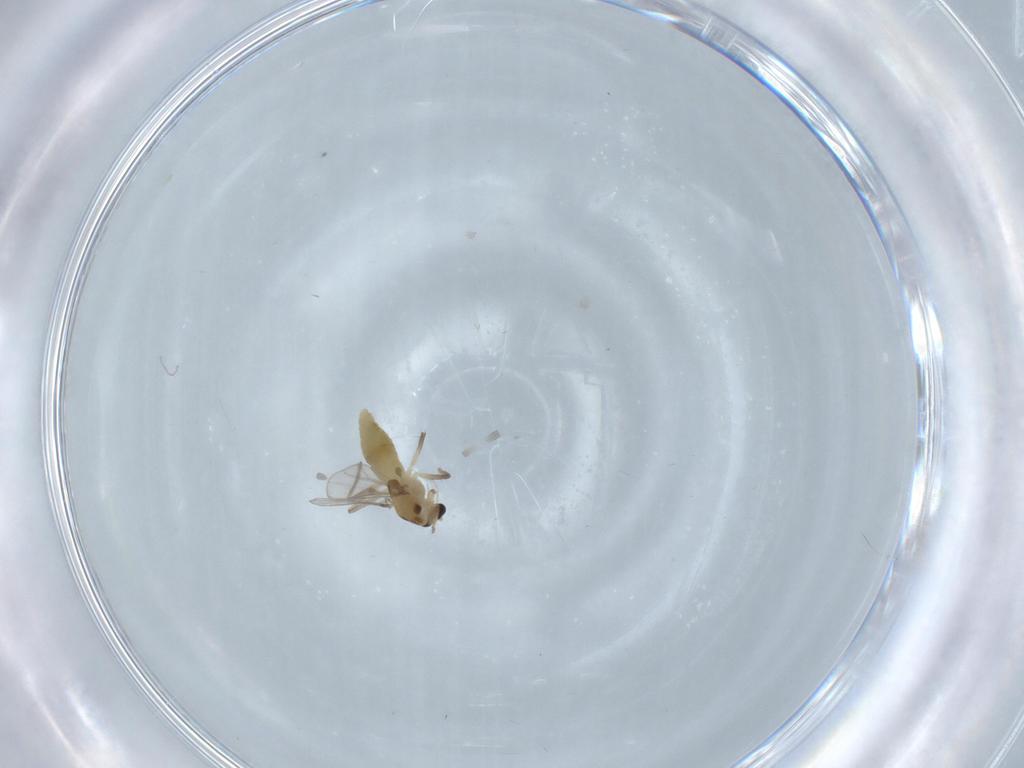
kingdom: Animalia
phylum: Arthropoda
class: Insecta
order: Diptera
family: Chironomidae
